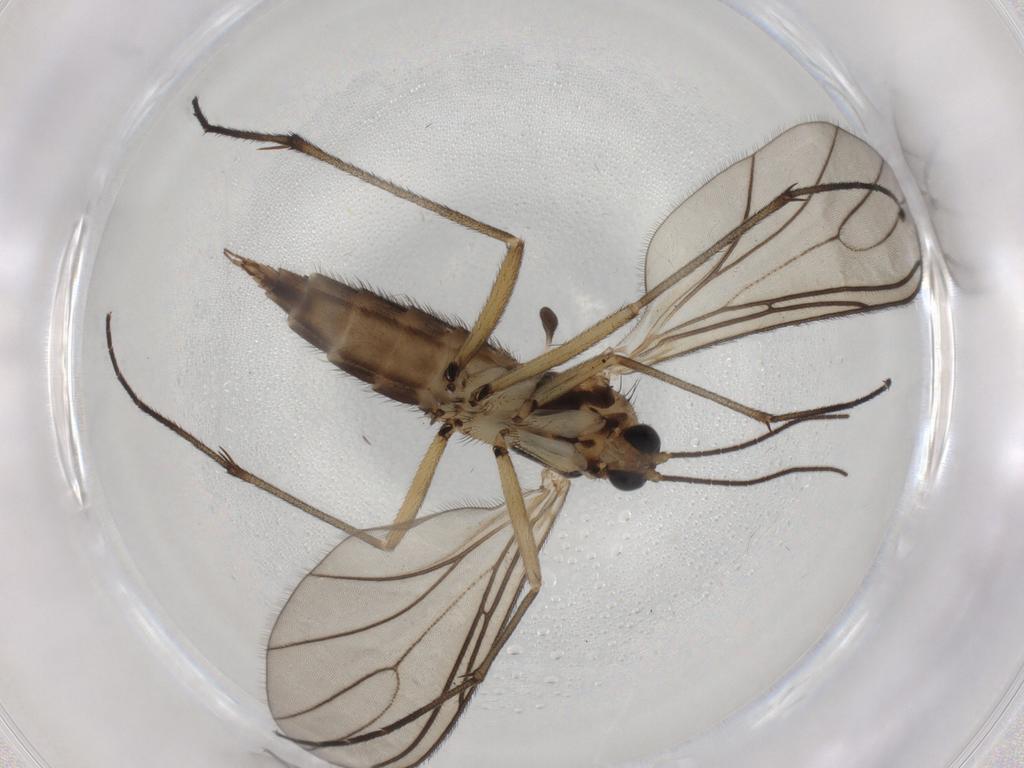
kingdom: Animalia
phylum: Arthropoda
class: Insecta
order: Diptera
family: Sciaridae
